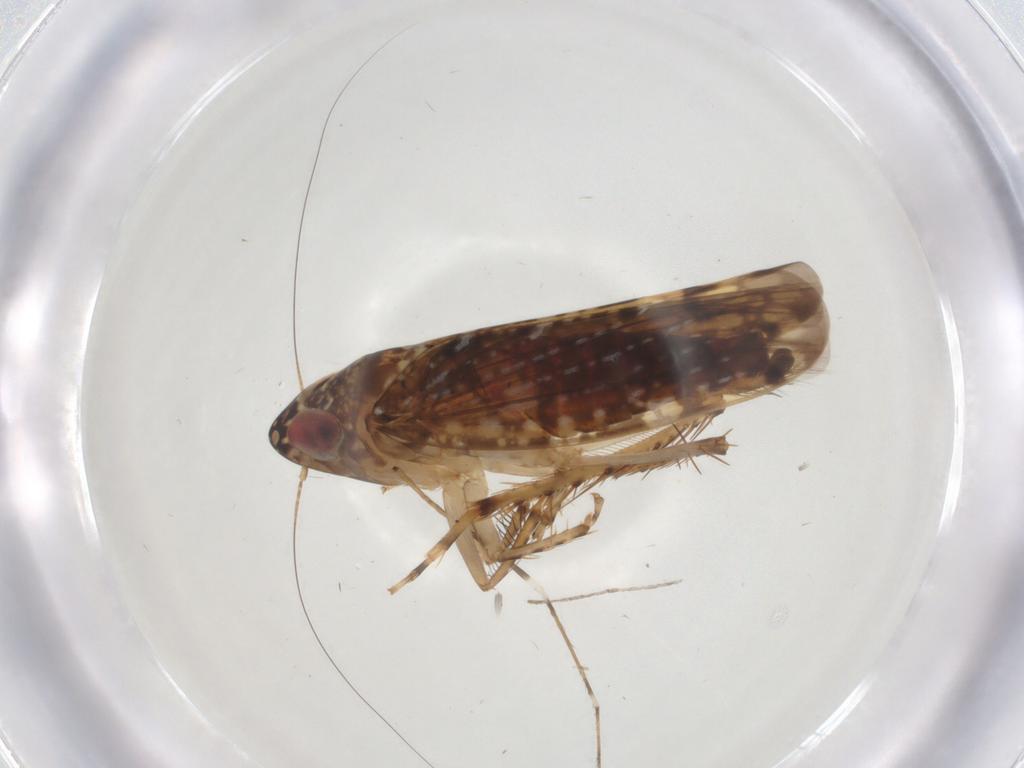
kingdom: Animalia
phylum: Arthropoda
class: Insecta
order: Hemiptera
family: Cicadellidae
